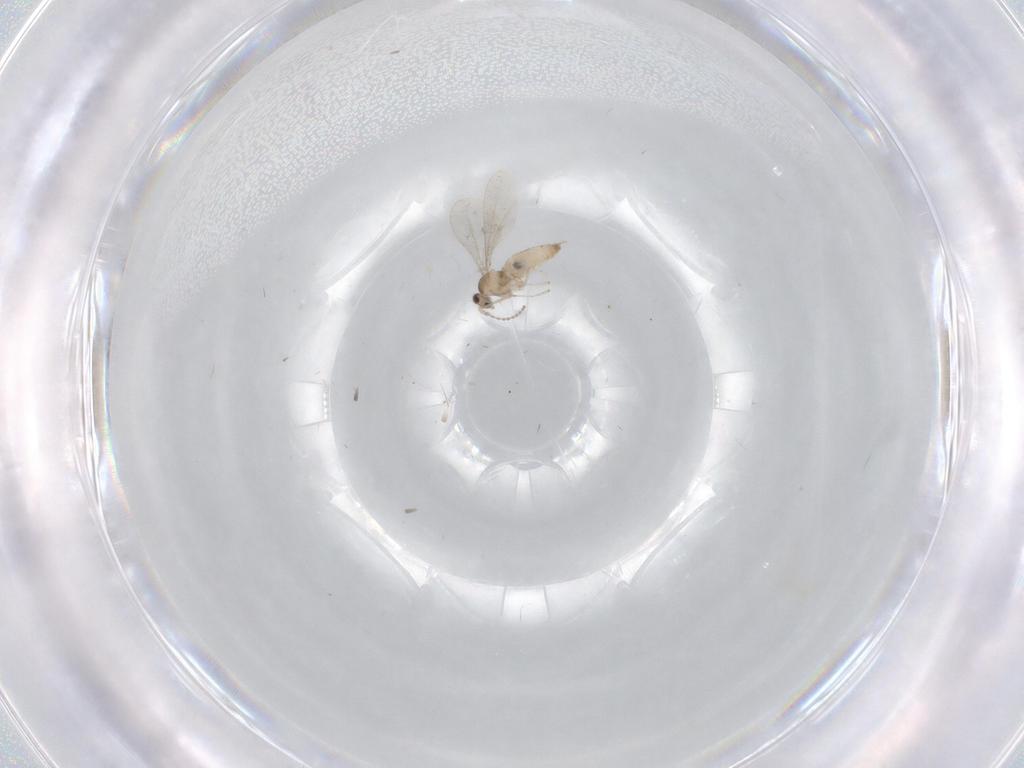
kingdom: Animalia
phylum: Arthropoda
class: Insecta
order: Diptera
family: Cecidomyiidae
